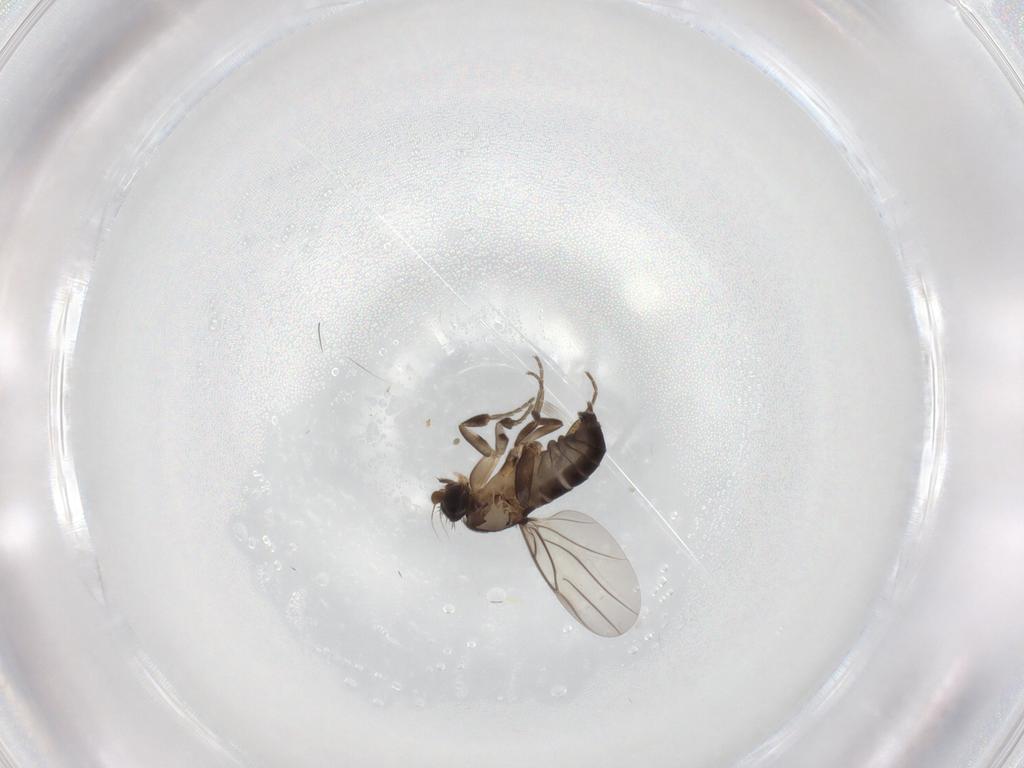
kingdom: Animalia
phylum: Arthropoda
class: Insecta
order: Diptera
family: Phoridae
